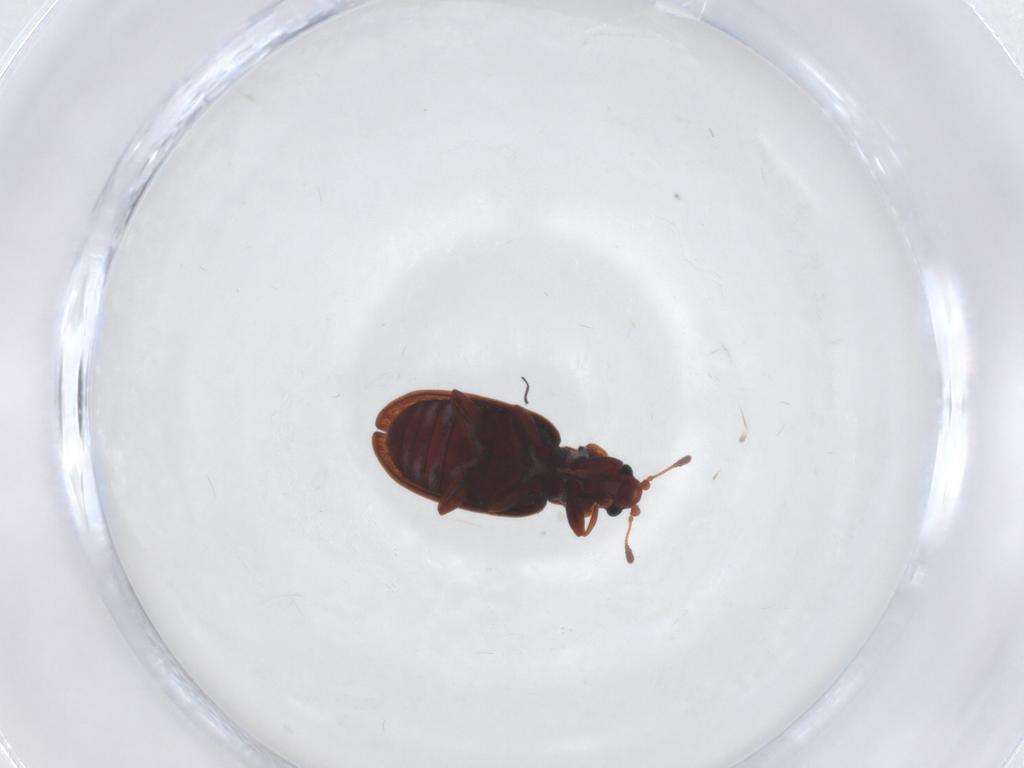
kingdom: Animalia
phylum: Arthropoda
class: Insecta
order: Coleoptera
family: Latridiidae
